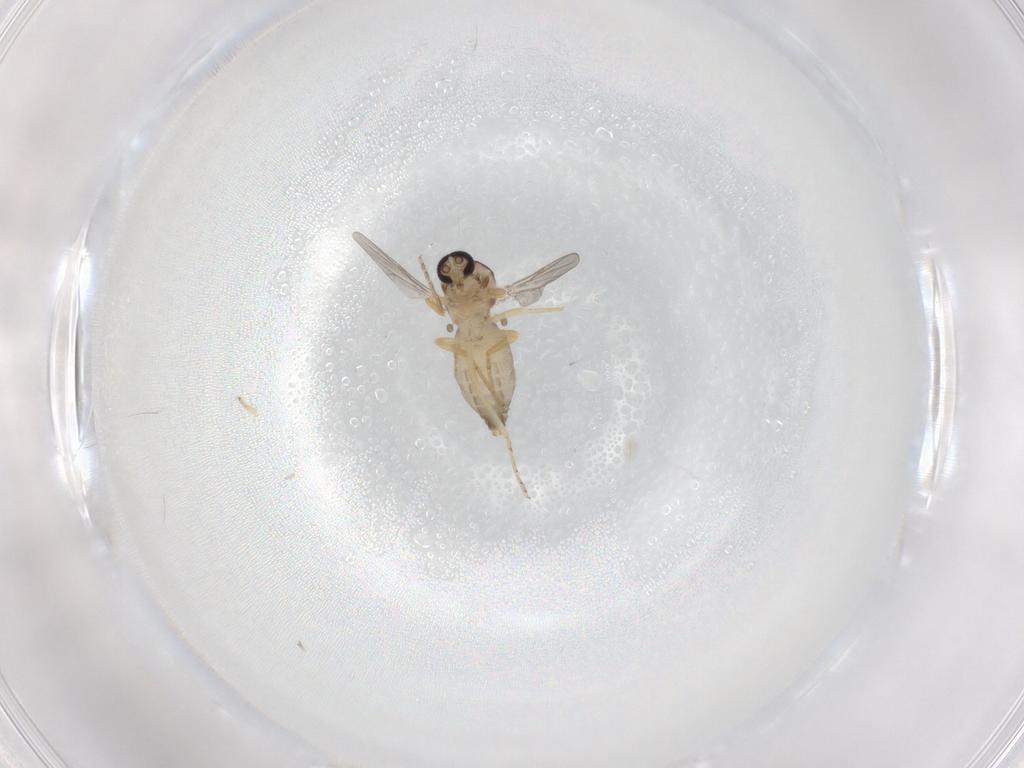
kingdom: Animalia
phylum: Arthropoda
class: Insecta
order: Diptera
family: Ceratopogonidae
